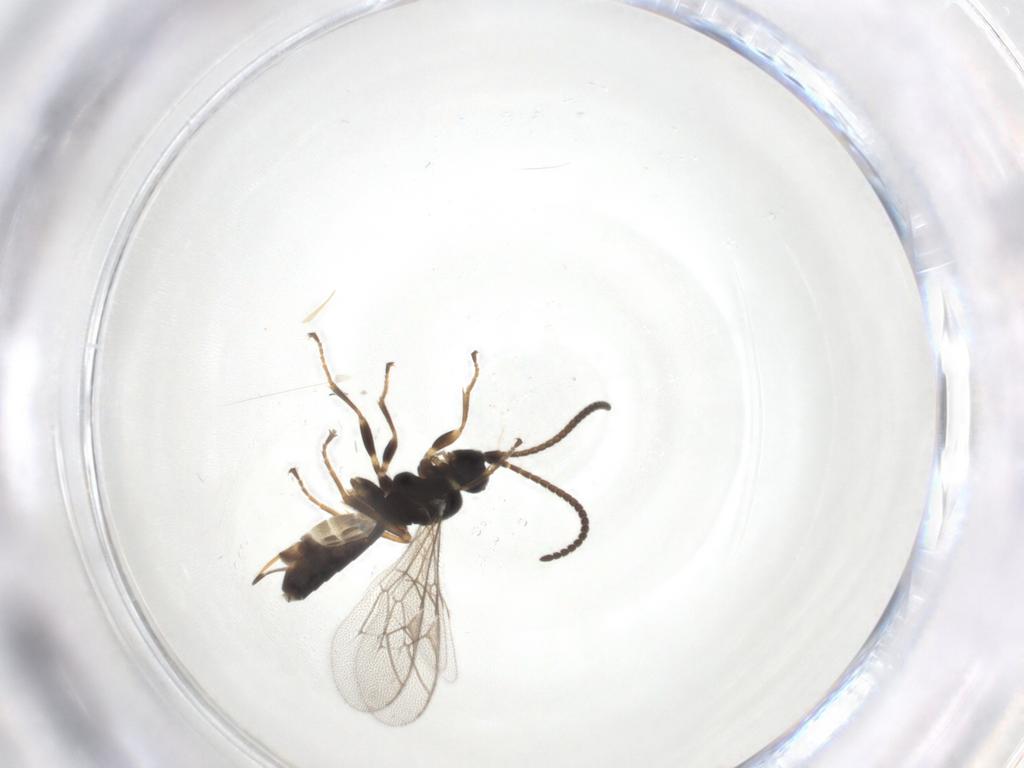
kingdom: Animalia
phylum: Arthropoda
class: Insecta
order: Hymenoptera
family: Ichneumonidae
